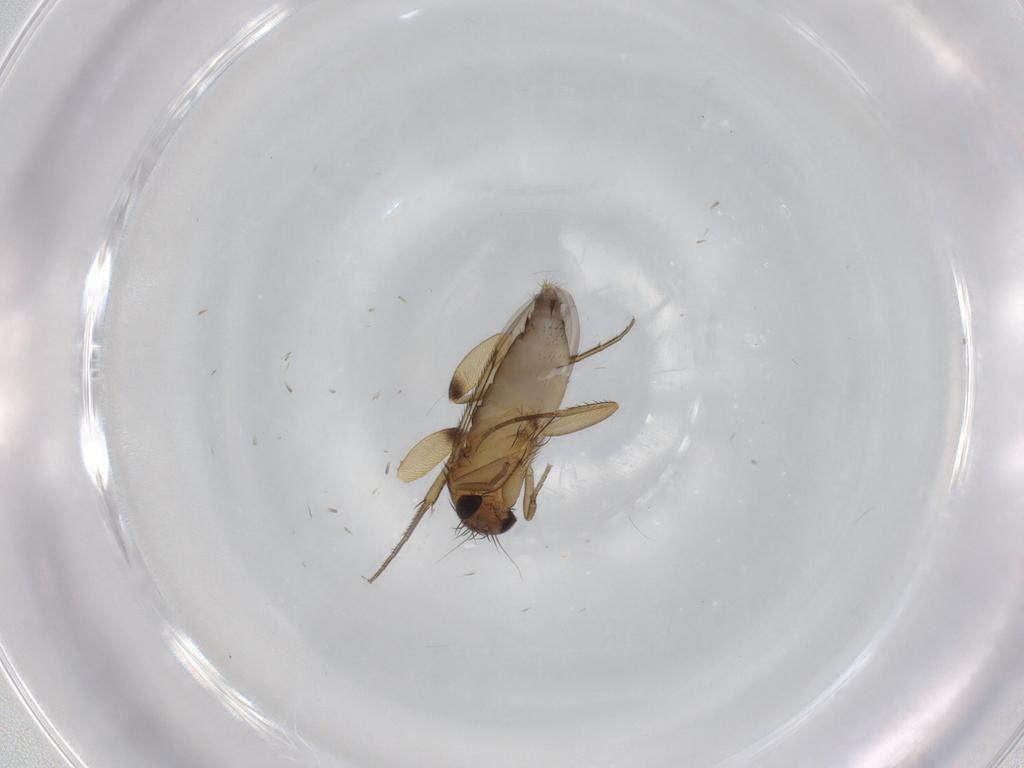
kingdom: Animalia
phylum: Arthropoda
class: Insecta
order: Diptera
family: Phoridae
